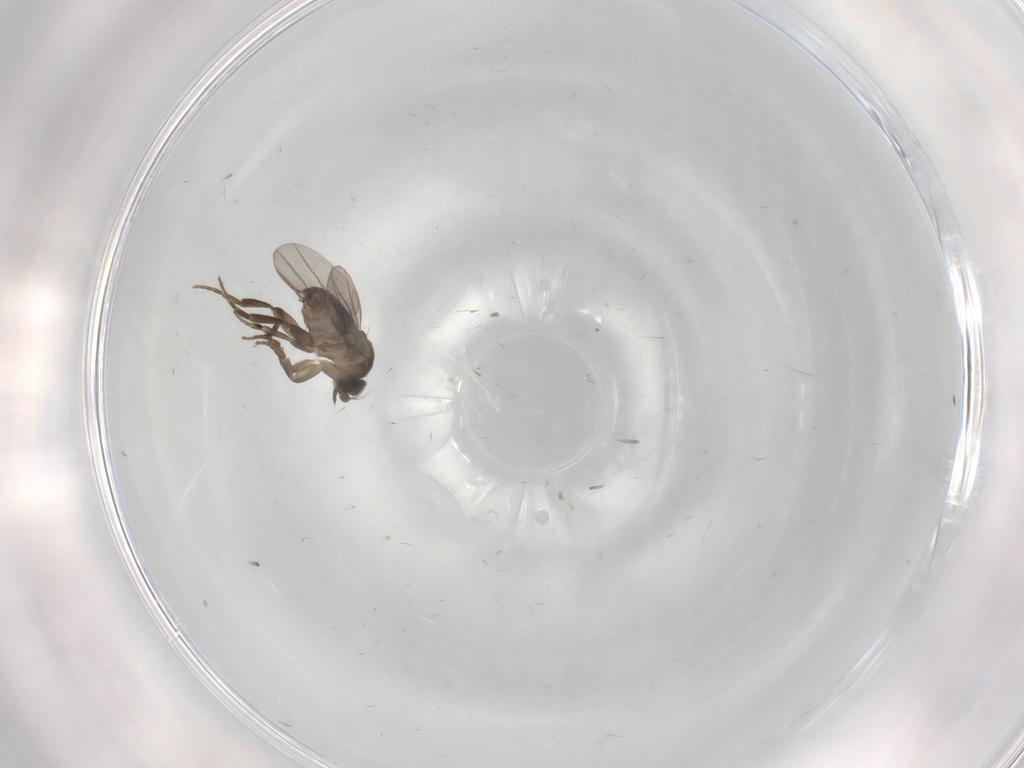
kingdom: Animalia
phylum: Arthropoda
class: Insecta
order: Diptera
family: Phoridae
